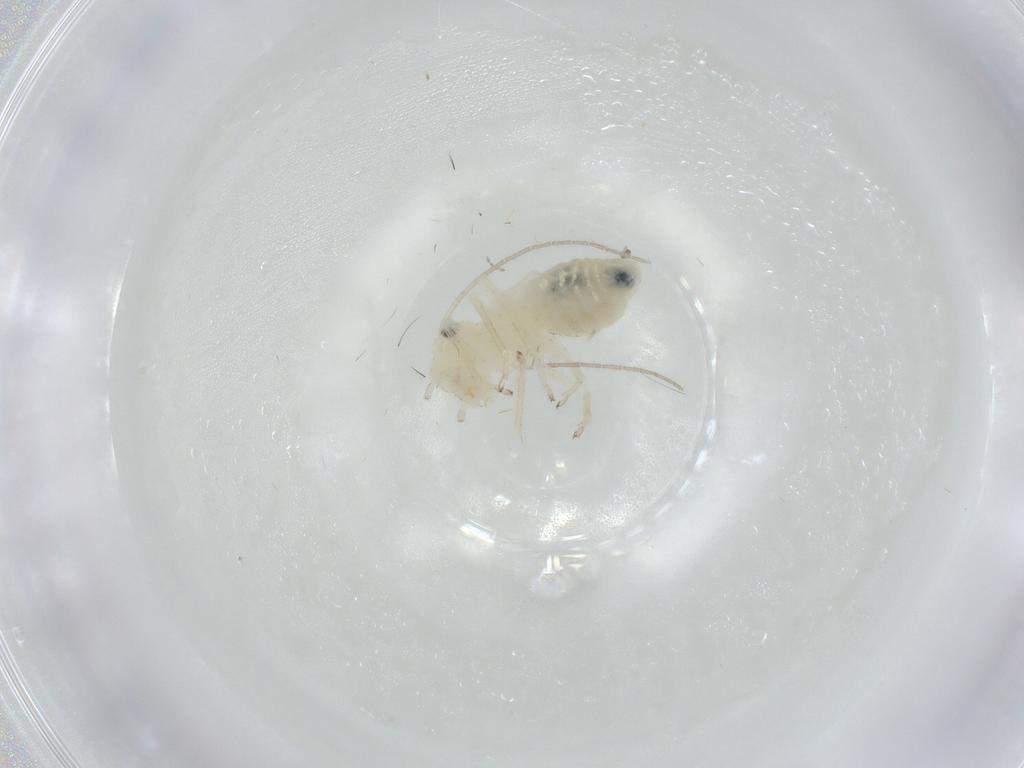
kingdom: Animalia
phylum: Arthropoda
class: Insecta
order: Psocodea
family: Caeciliusidae
